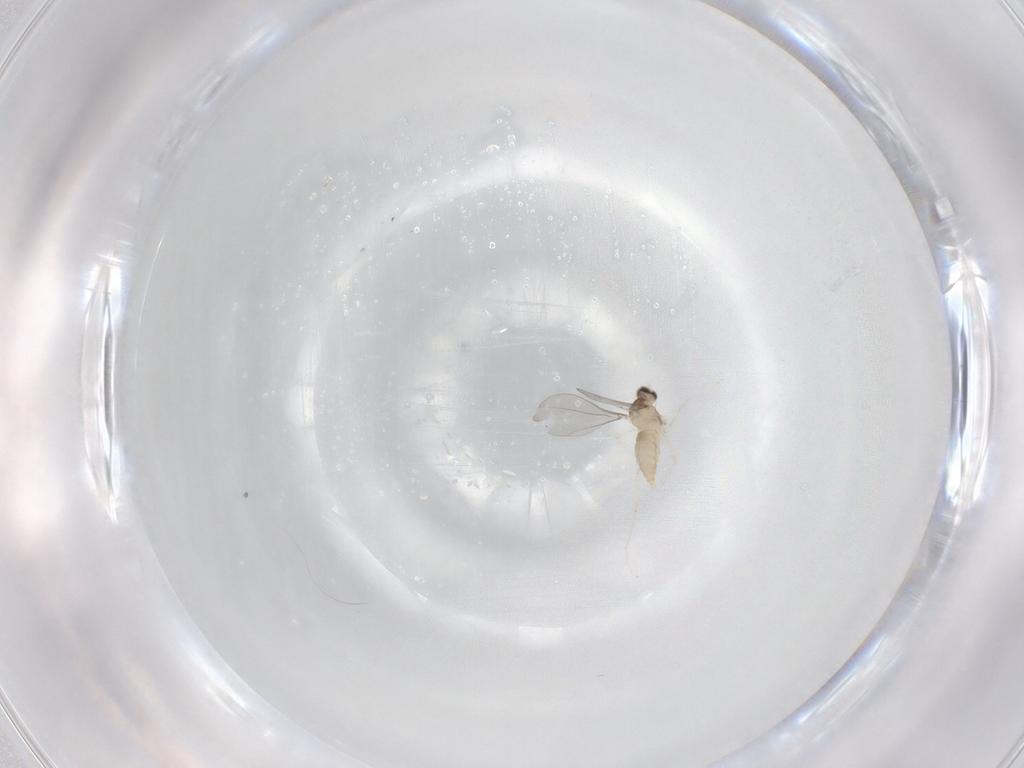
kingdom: Animalia
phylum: Arthropoda
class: Insecta
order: Diptera
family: Cecidomyiidae
